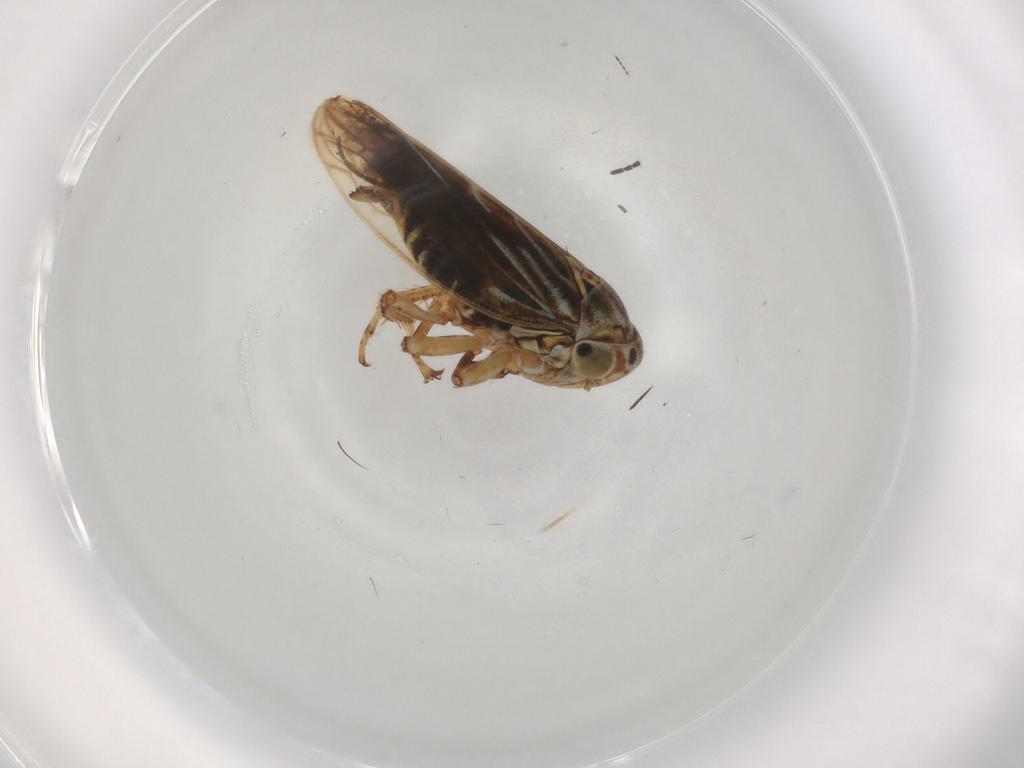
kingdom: Animalia
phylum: Arthropoda
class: Insecta
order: Hemiptera
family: Cicadellidae
